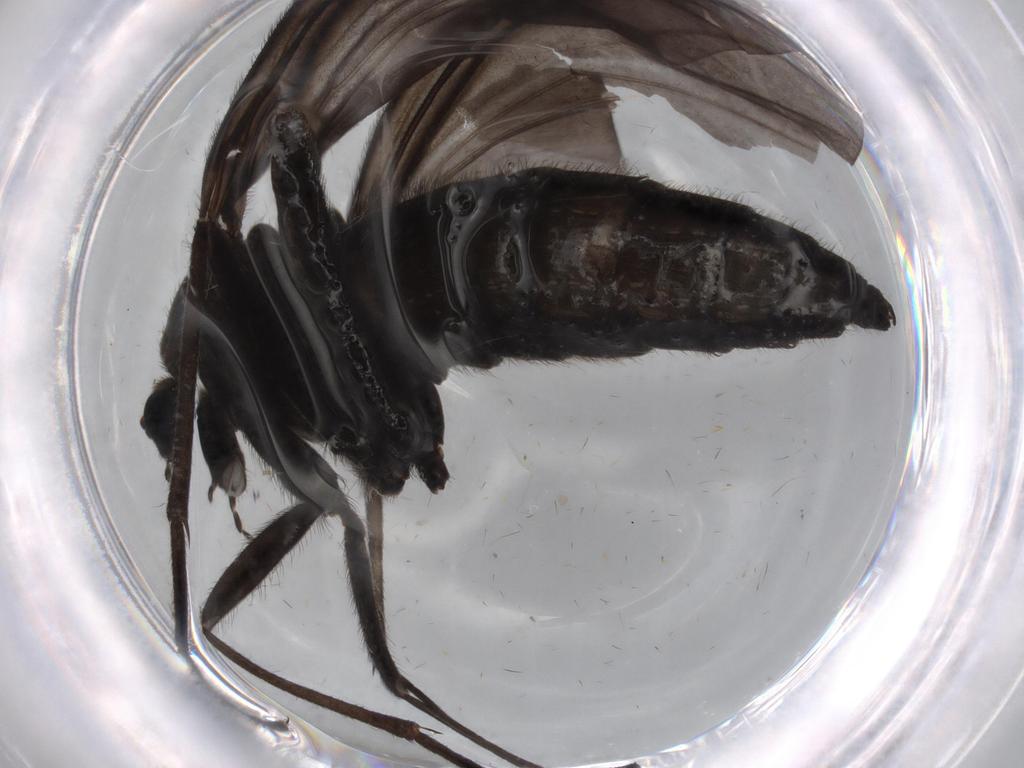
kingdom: Animalia
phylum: Arthropoda
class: Insecta
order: Diptera
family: Sciaridae
